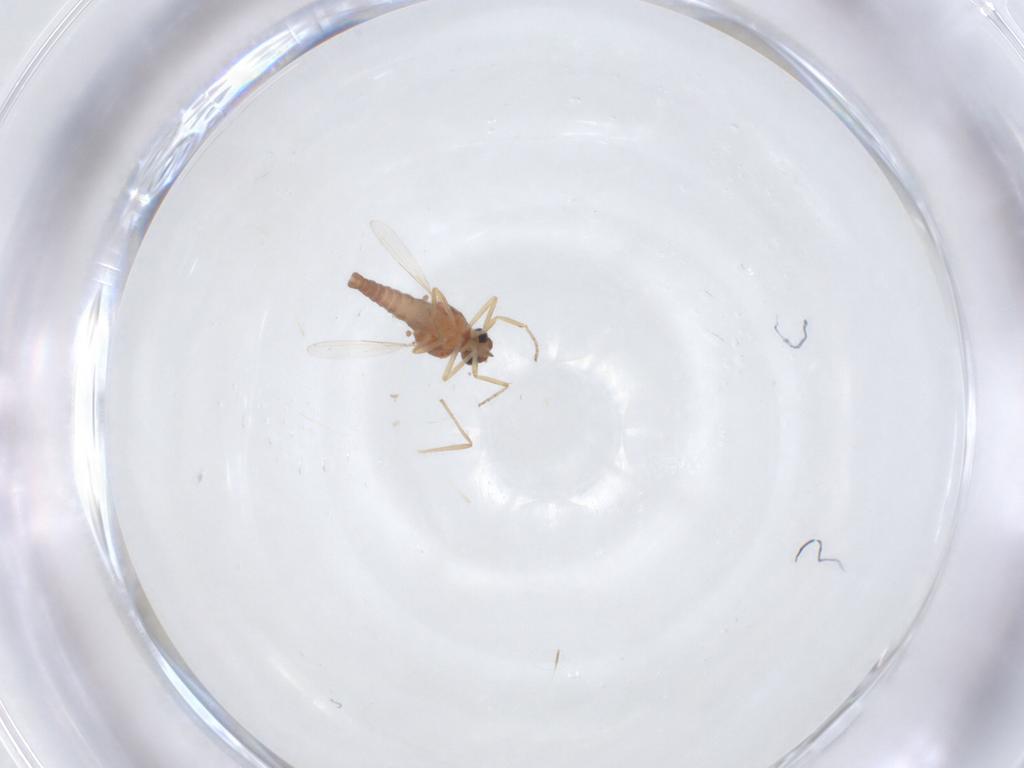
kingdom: Animalia
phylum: Arthropoda
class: Insecta
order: Diptera
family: Ceratopogonidae
